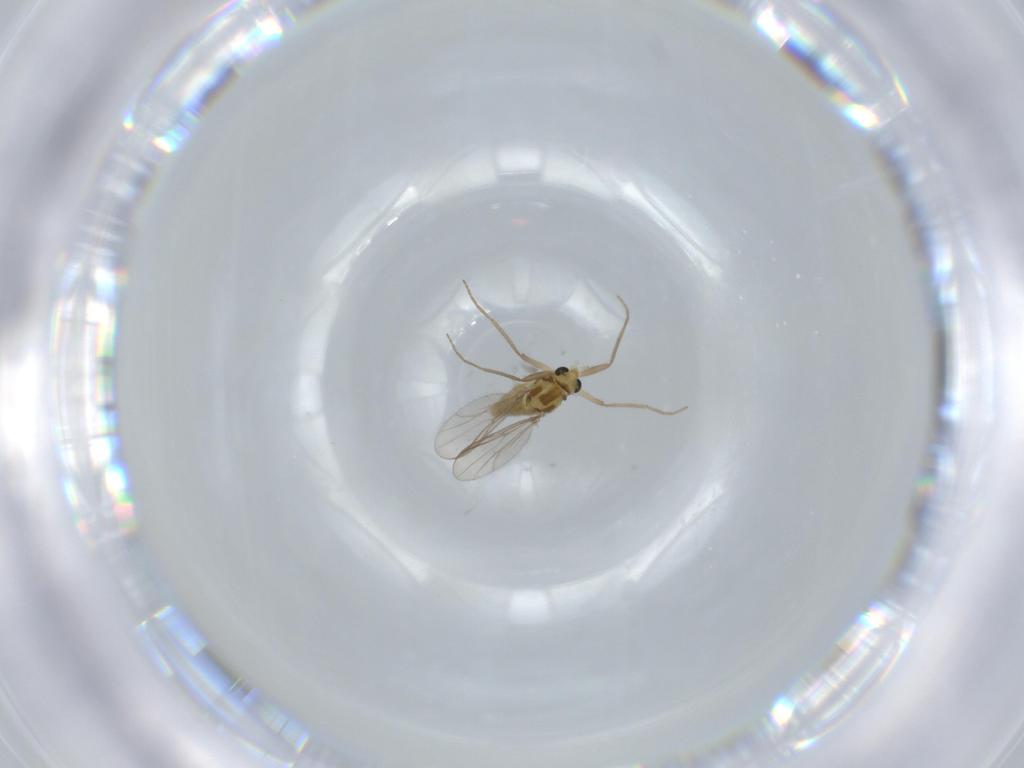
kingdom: Animalia
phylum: Arthropoda
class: Insecta
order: Diptera
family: Chironomidae
